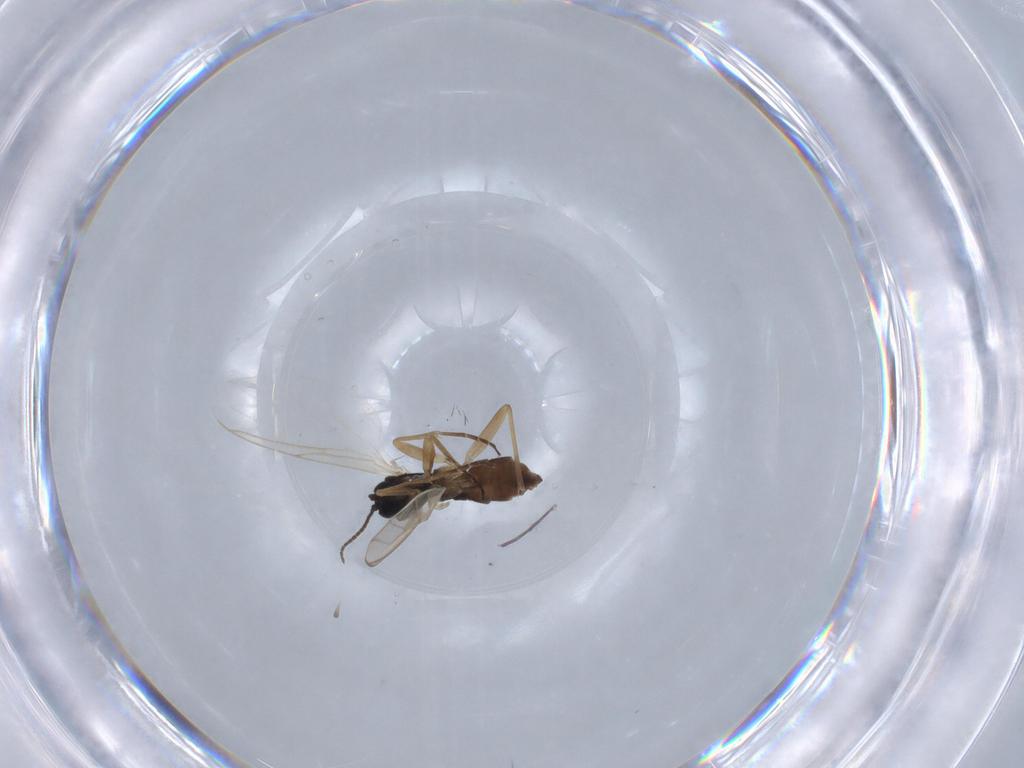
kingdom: Animalia
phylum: Arthropoda
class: Insecta
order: Diptera
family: Sciaridae
